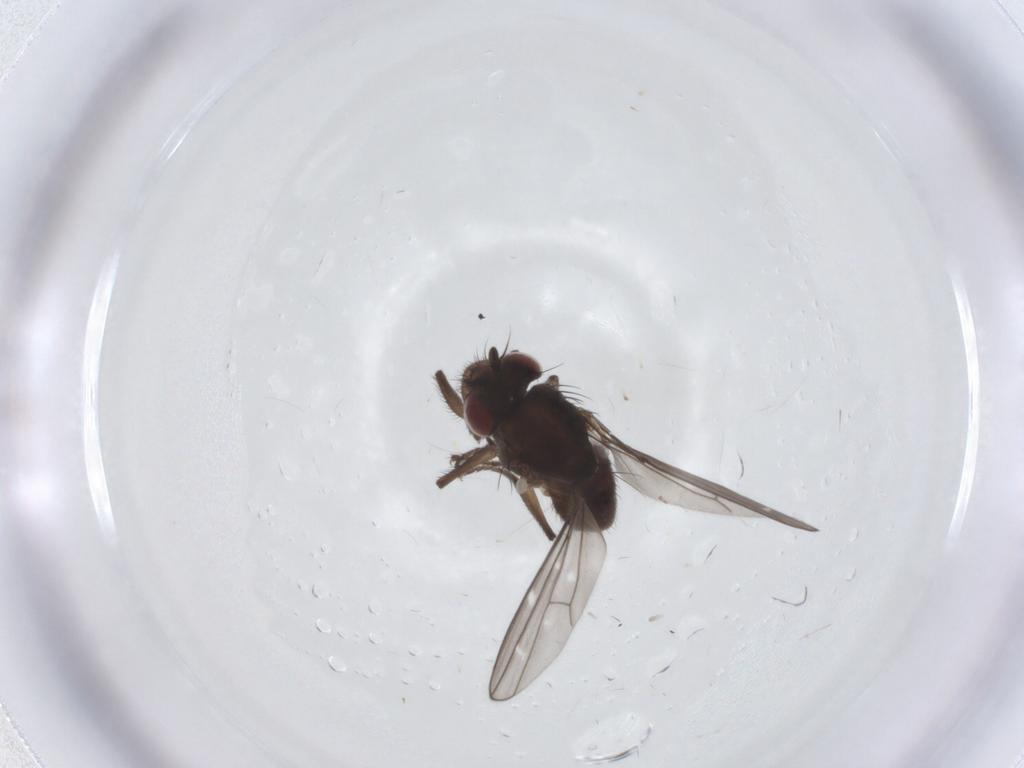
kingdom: Animalia
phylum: Arthropoda
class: Insecta
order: Diptera
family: Ephydridae
